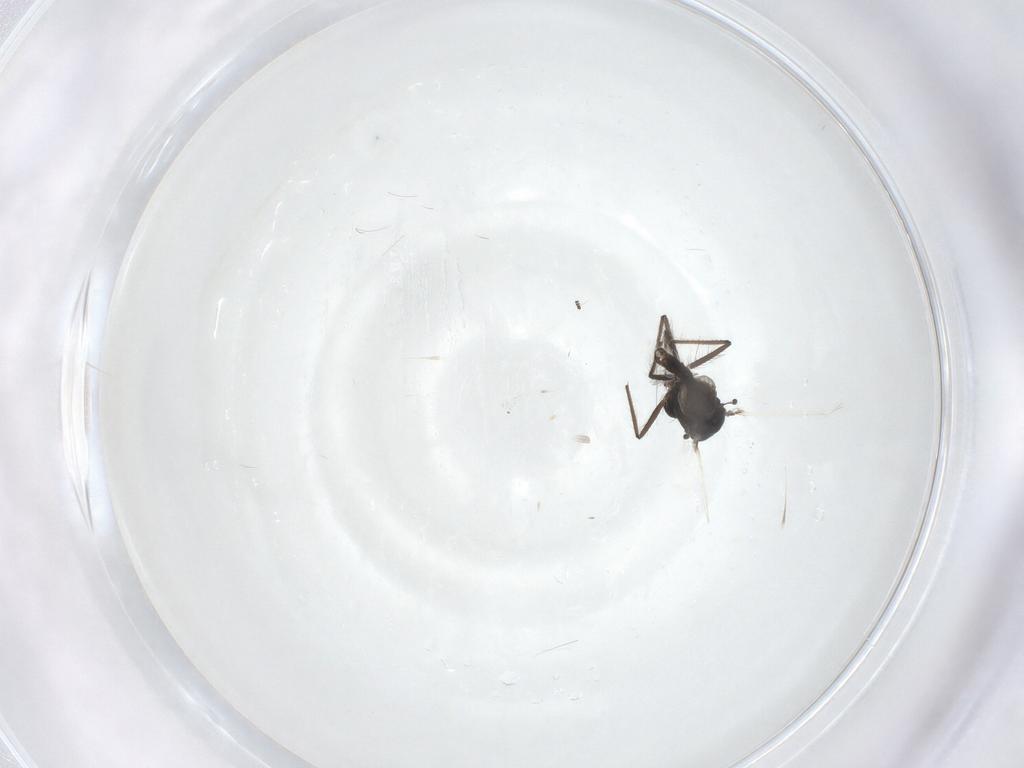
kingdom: Animalia
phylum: Arthropoda
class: Insecta
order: Diptera
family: Chironomidae
